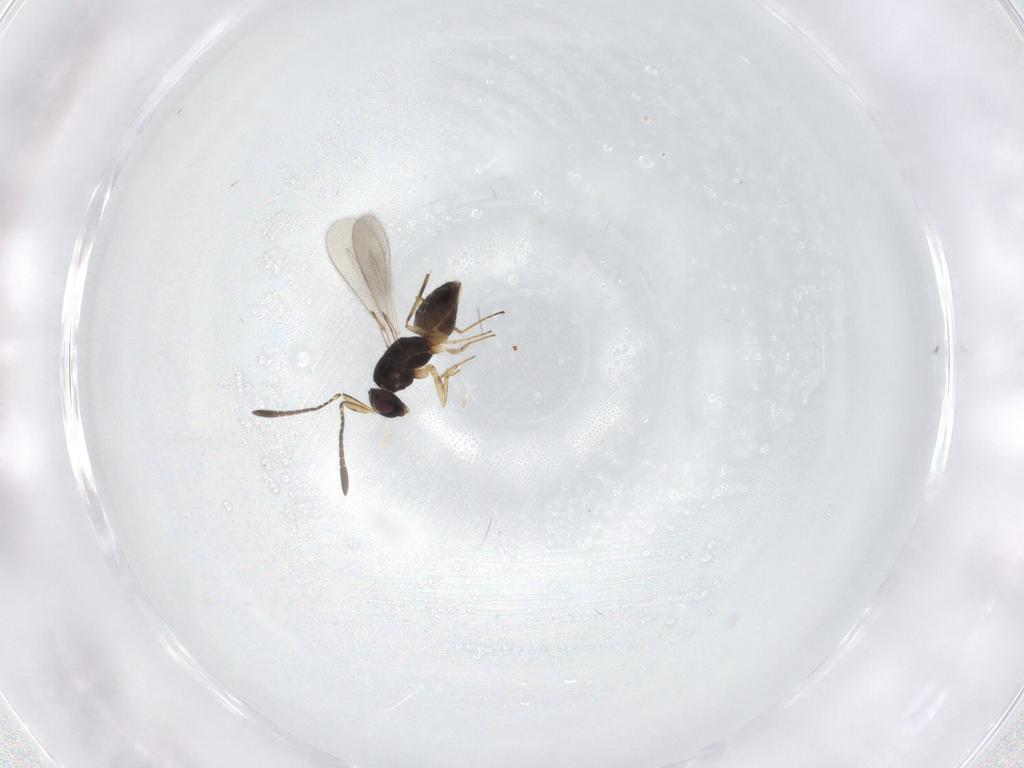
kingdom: Animalia
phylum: Arthropoda
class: Insecta
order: Hymenoptera
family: Mymaridae
